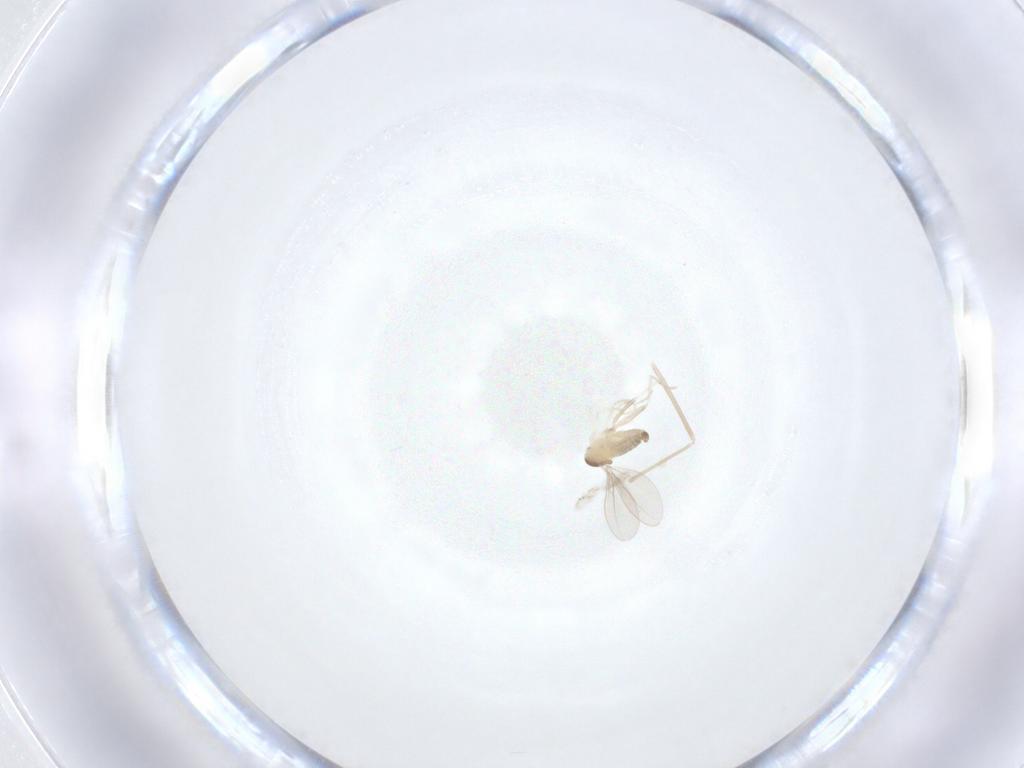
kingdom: Animalia
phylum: Arthropoda
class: Insecta
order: Diptera
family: Cecidomyiidae
